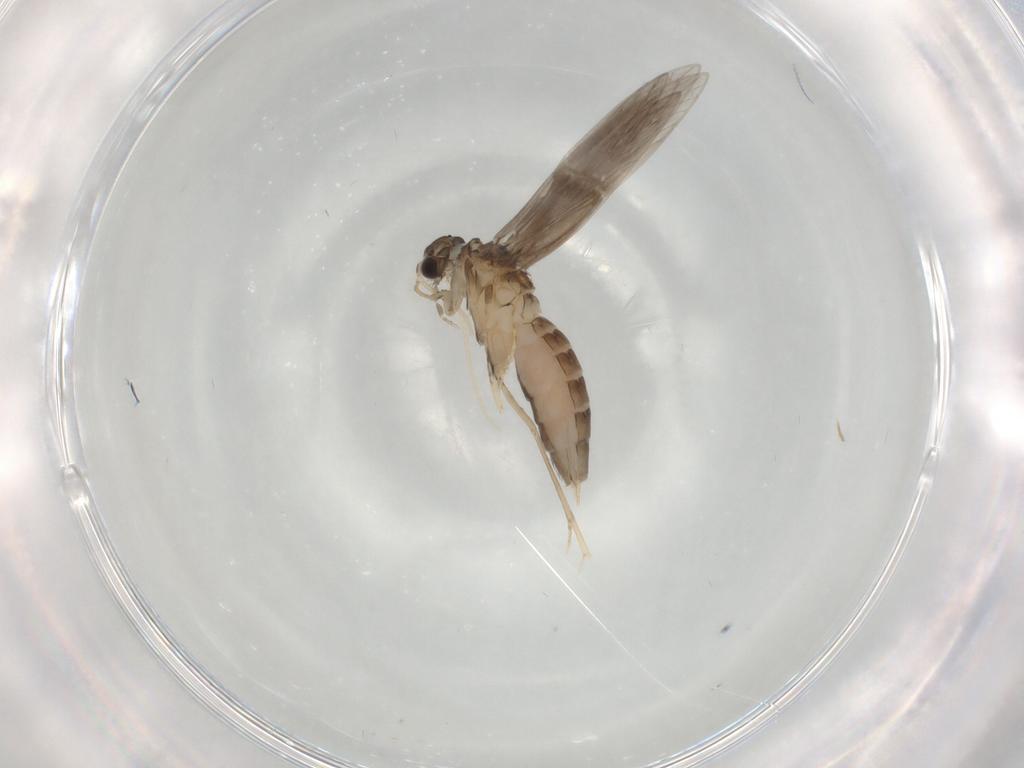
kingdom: Animalia
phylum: Arthropoda
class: Insecta
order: Trichoptera
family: Hydroptilidae
